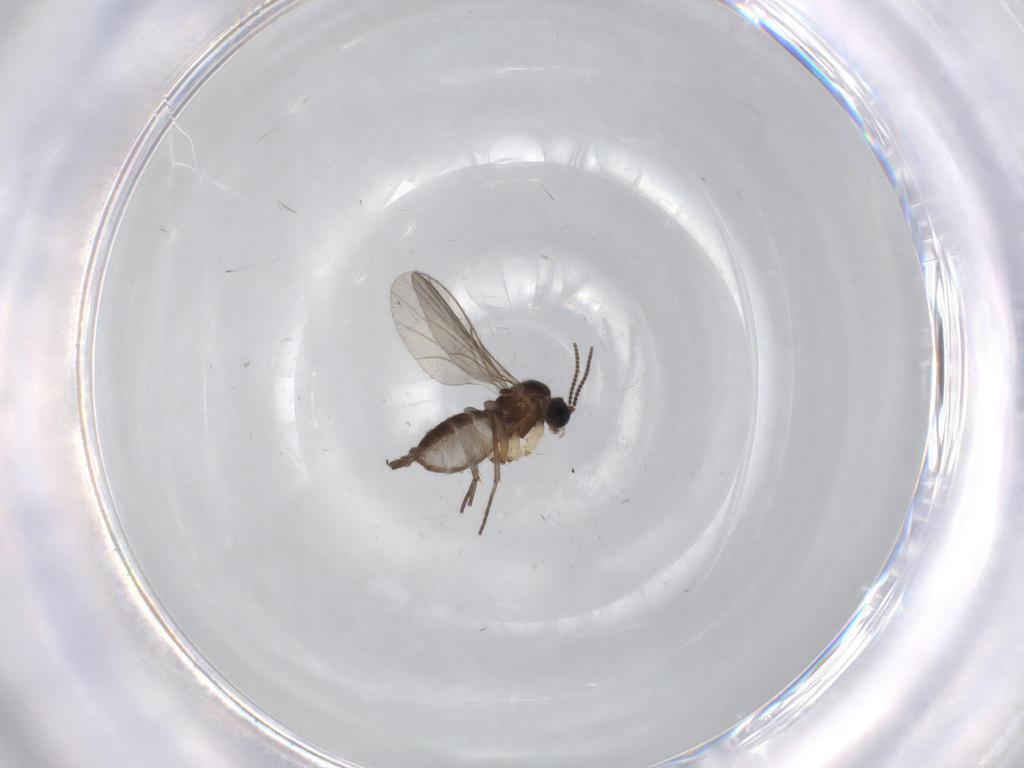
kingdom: Animalia
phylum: Arthropoda
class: Insecta
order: Diptera
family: Sciaridae
